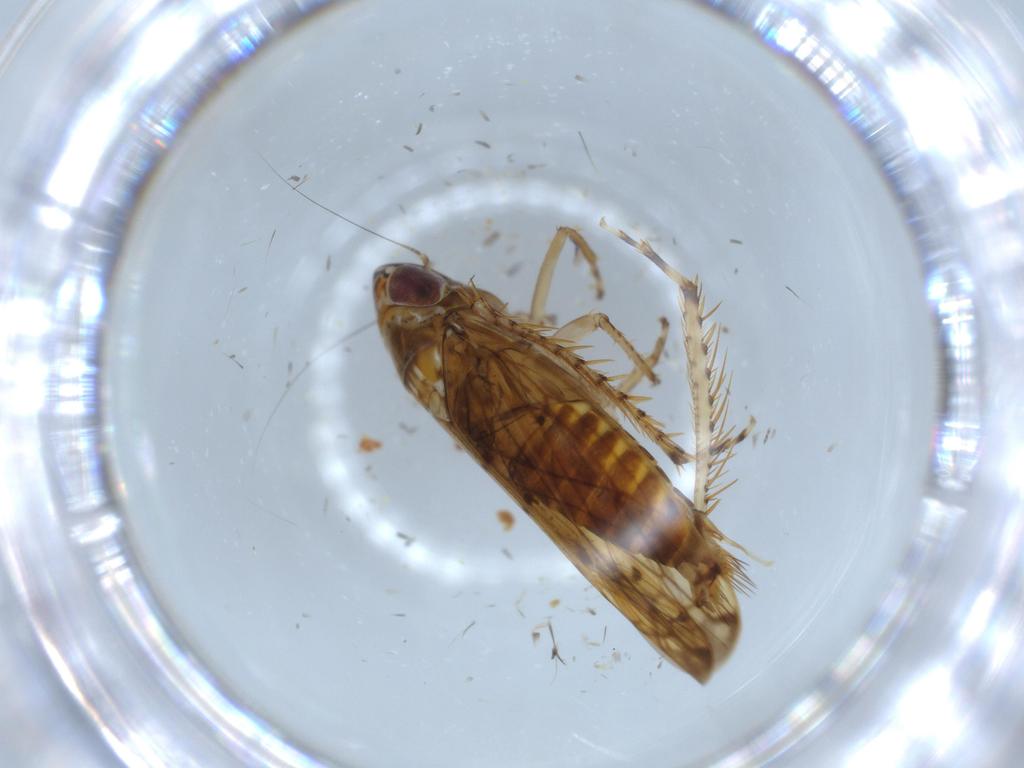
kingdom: Animalia
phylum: Arthropoda
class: Insecta
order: Hemiptera
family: Cicadellidae
